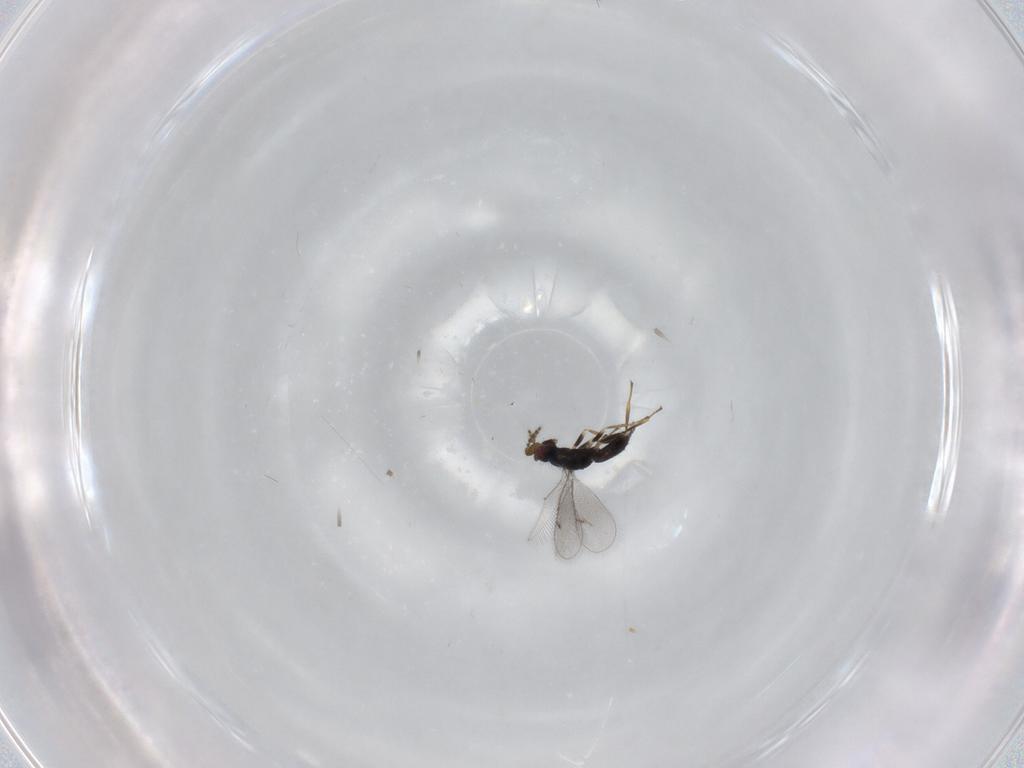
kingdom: Animalia
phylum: Arthropoda
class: Insecta
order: Hymenoptera
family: Eulophidae
